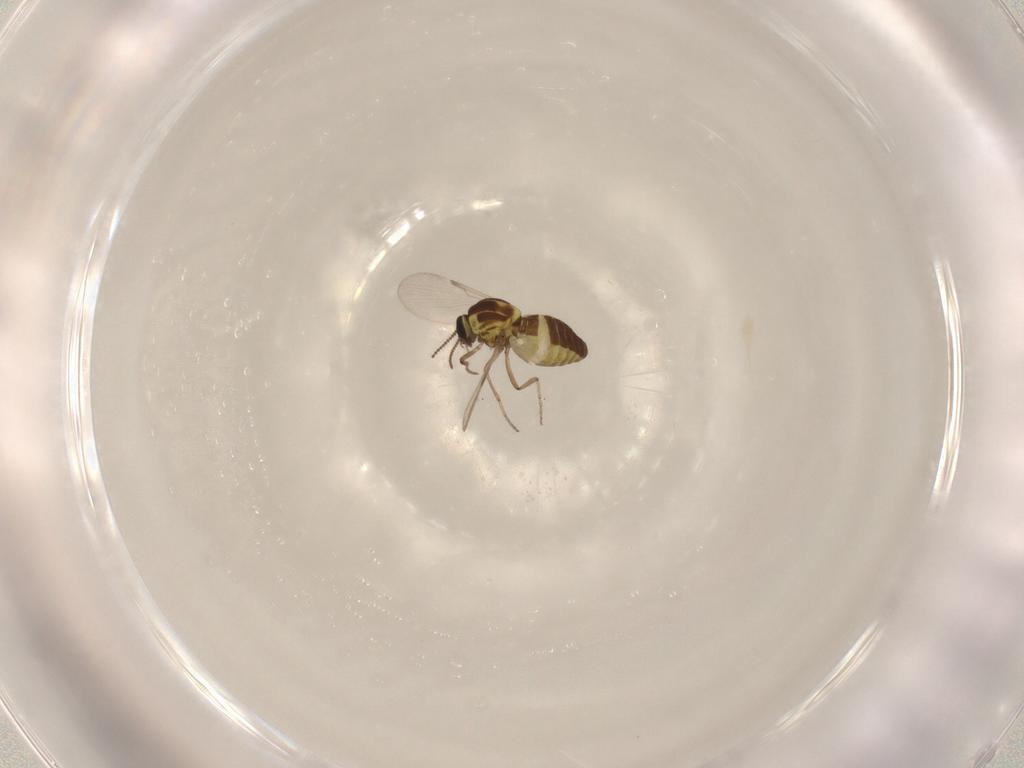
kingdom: Animalia
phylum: Arthropoda
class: Insecta
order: Diptera
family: Ceratopogonidae
